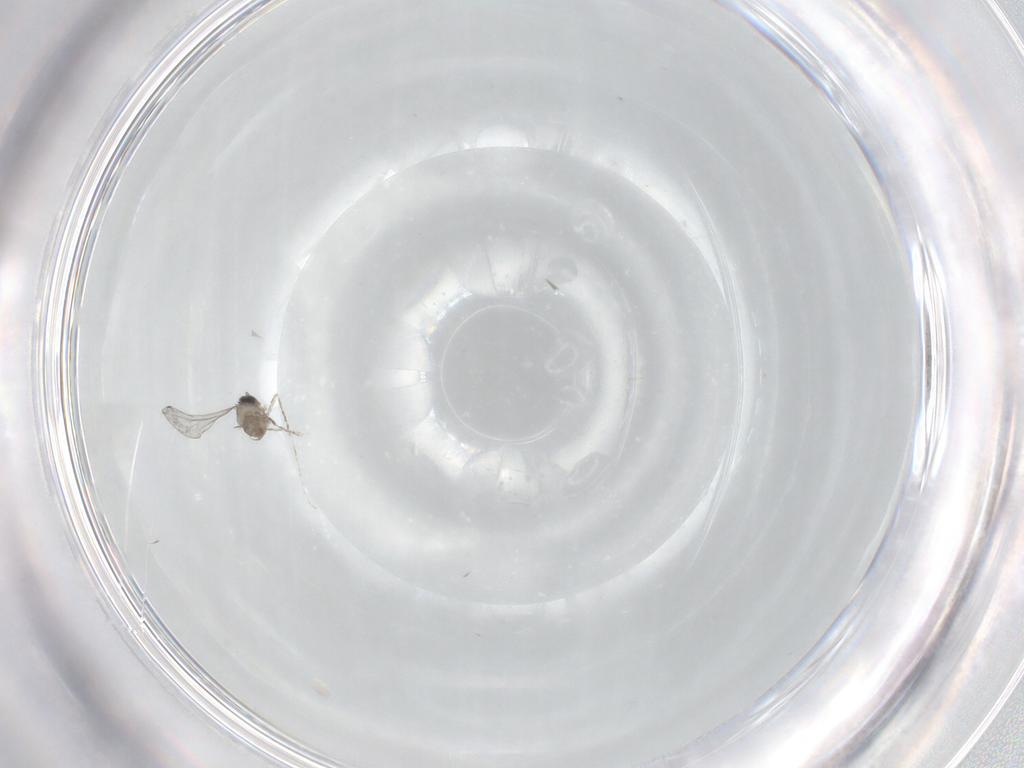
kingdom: Animalia
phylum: Arthropoda
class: Insecta
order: Diptera
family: Cecidomyiidae
